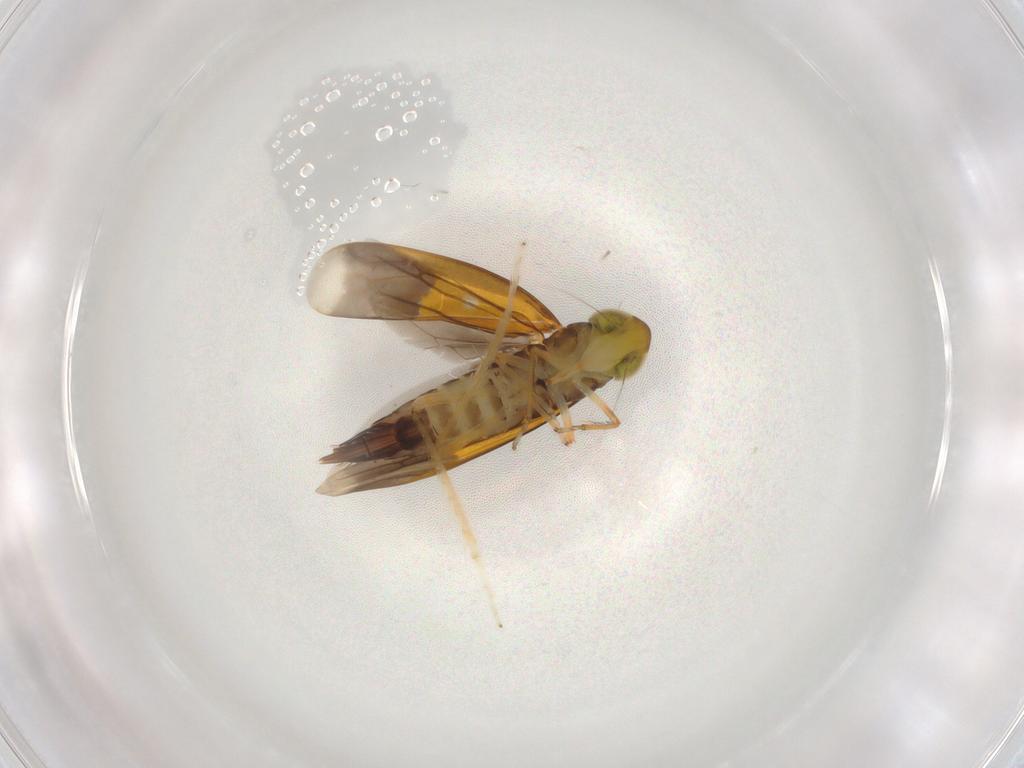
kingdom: Animalia
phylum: Arthropoda
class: Insecta
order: Hemiptera
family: Cicadellidae
